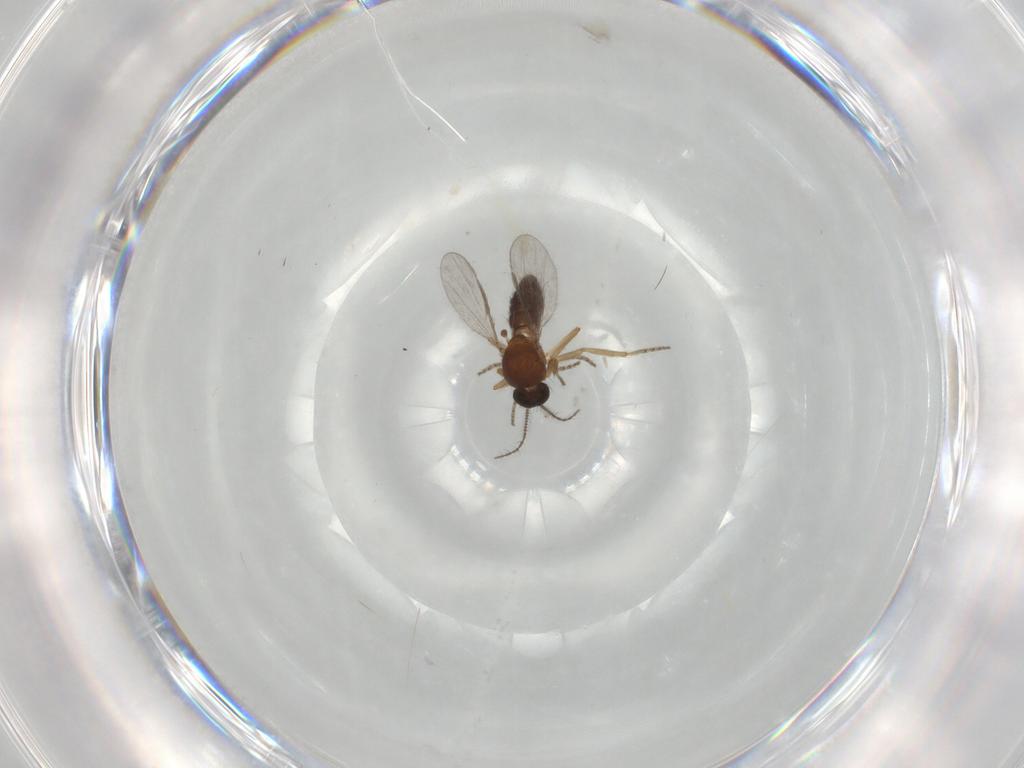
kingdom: Animalia
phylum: Arthropoda
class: Insecta
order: Diptera
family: Ceratopogonidae
